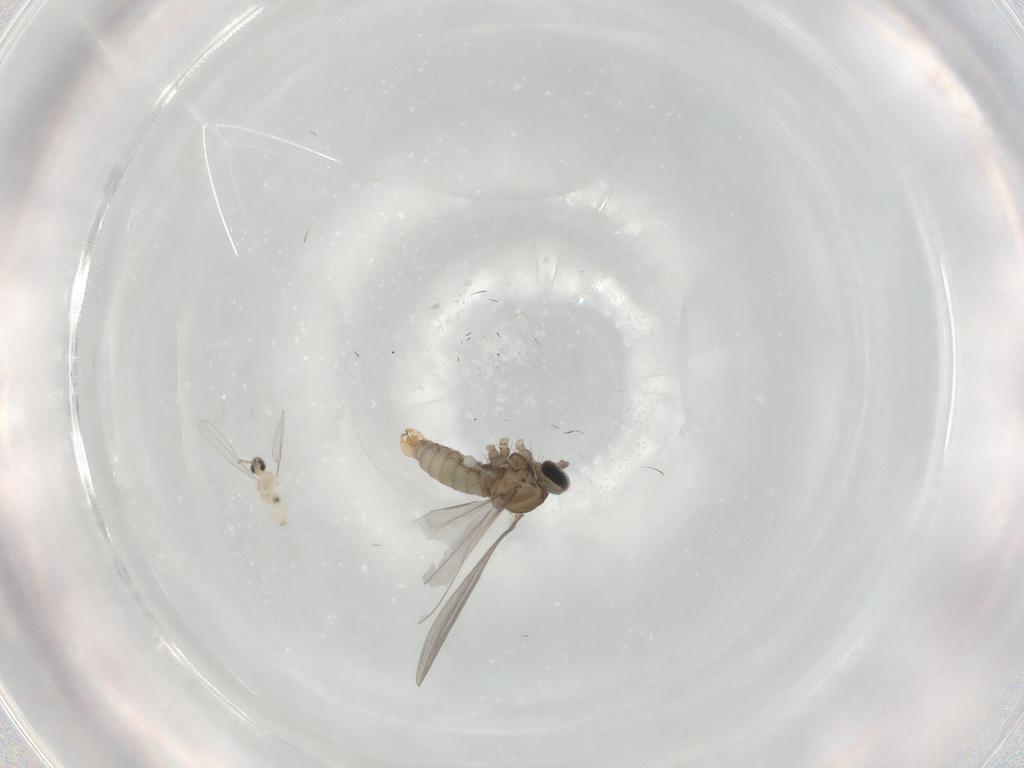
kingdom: Animalia
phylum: Arthropoda
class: Insecta
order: Diptera
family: Cecidomyiidae
